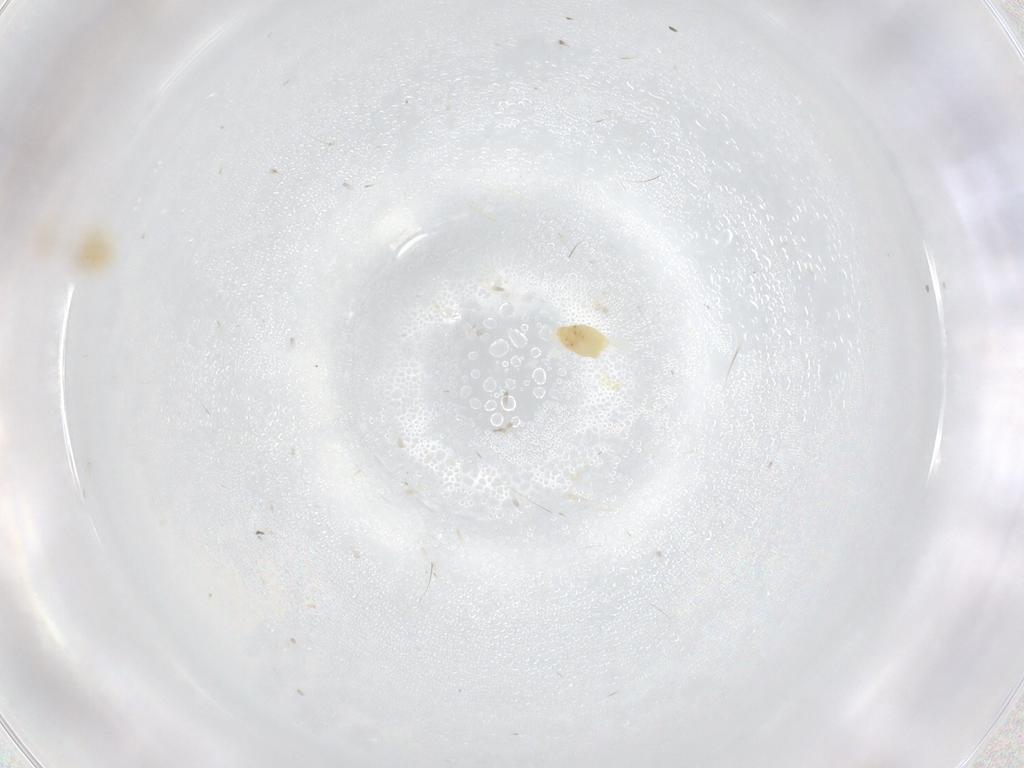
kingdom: Animalia
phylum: Arthropoda
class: Insecta
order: Hemiptera
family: Aleyrodidae
